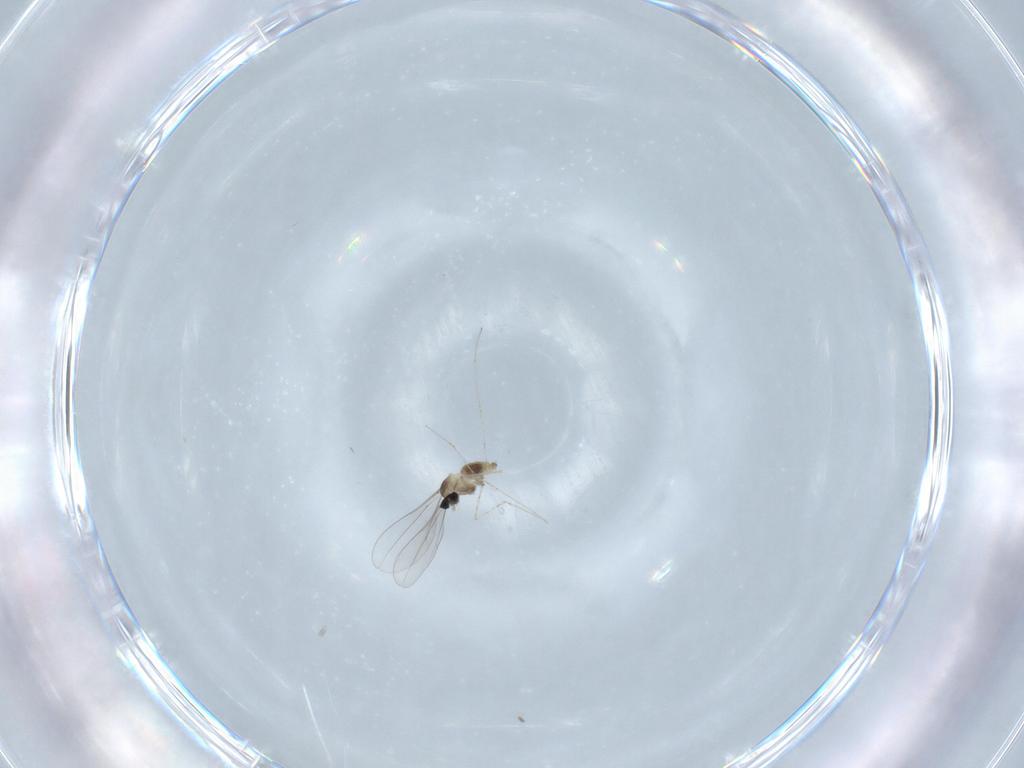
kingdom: Animalia
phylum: Arthropoda
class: Insecta
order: Diptera
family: Cecidomyiidae
